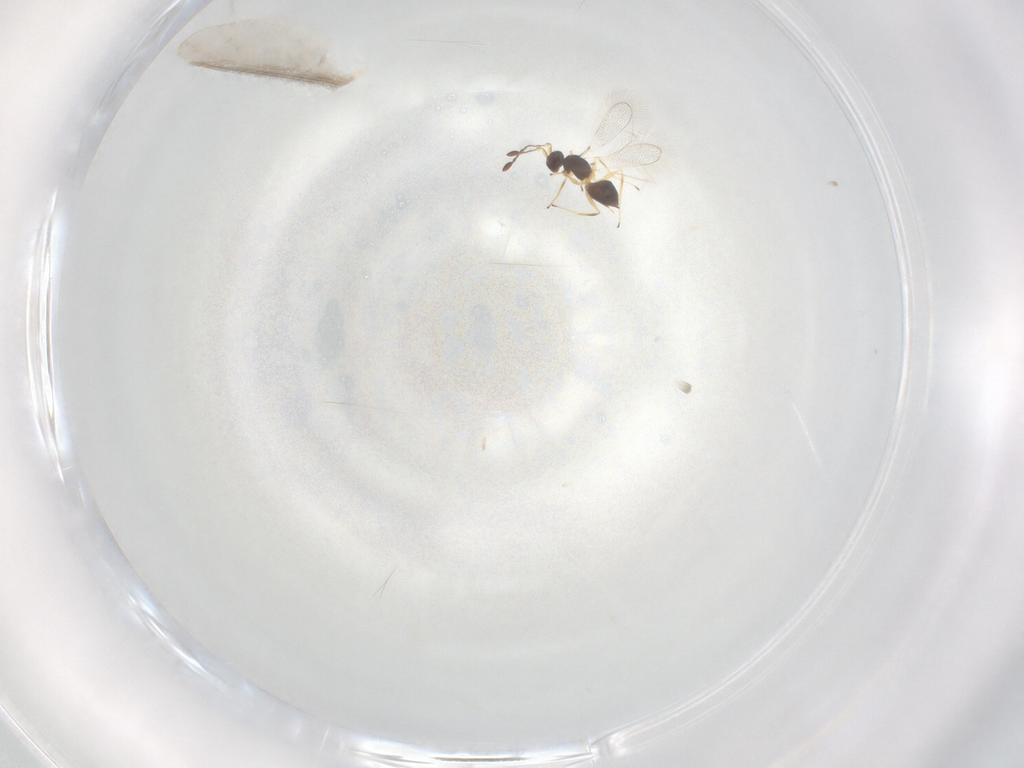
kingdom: Animalia
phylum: Arthropoda
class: Insecta
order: Hymenoptera
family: Mymaridae
